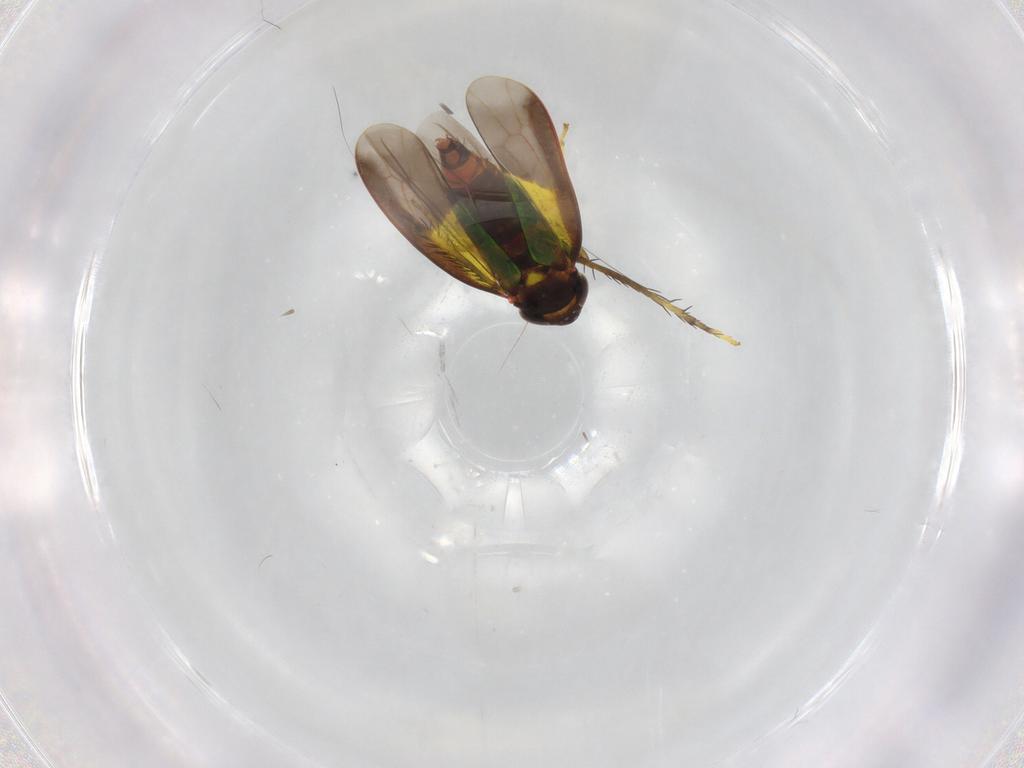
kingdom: Animalia
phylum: Arthropoda
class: Insecta
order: Hemiptera
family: Cicadellidae
